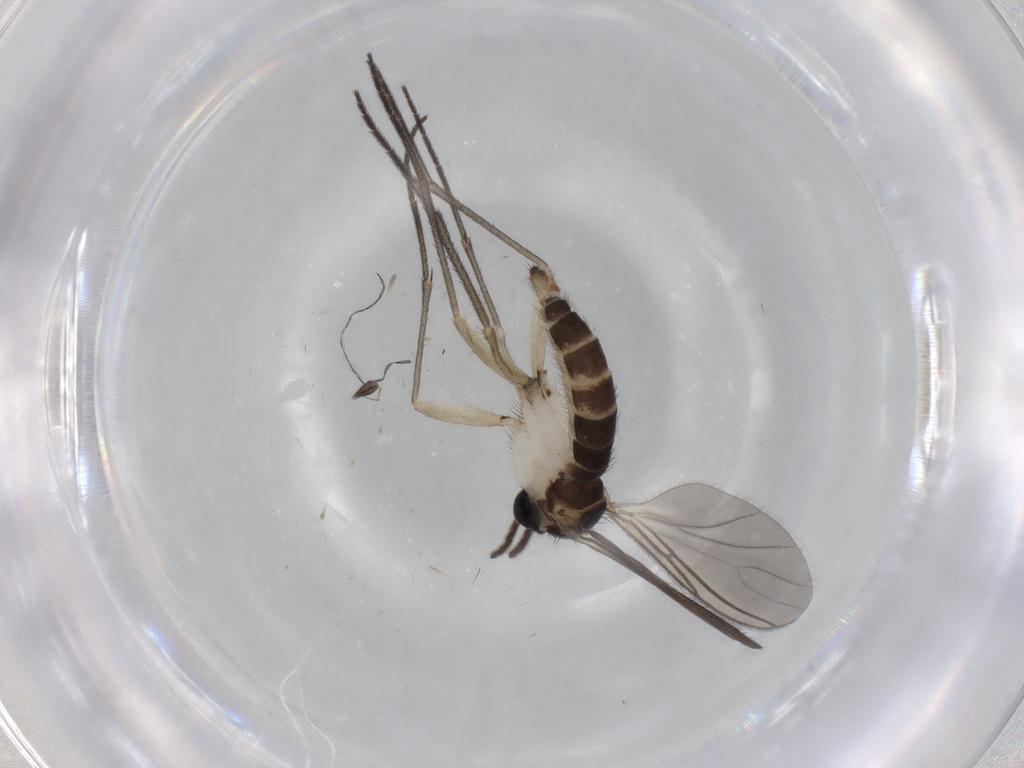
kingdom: Animalia
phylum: Arthropoda
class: Insecta
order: Diptera
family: Sciaridae
